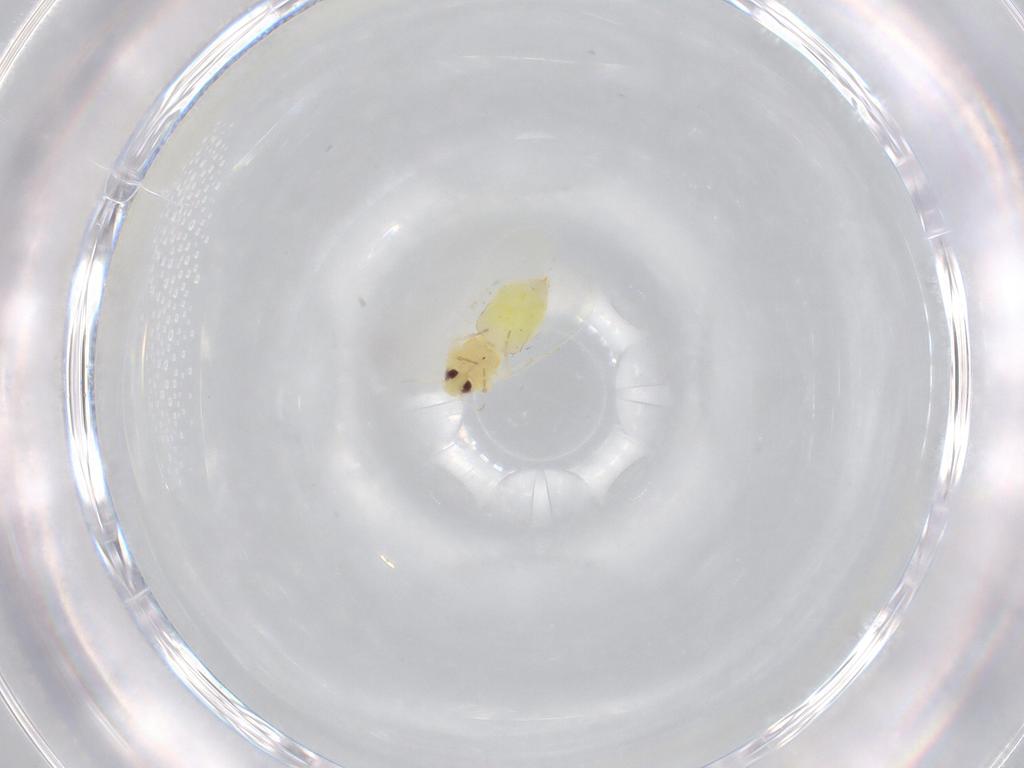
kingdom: Animalia
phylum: Arthropoda
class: Insecta
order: Hemiptera
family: Aleyrodidae
